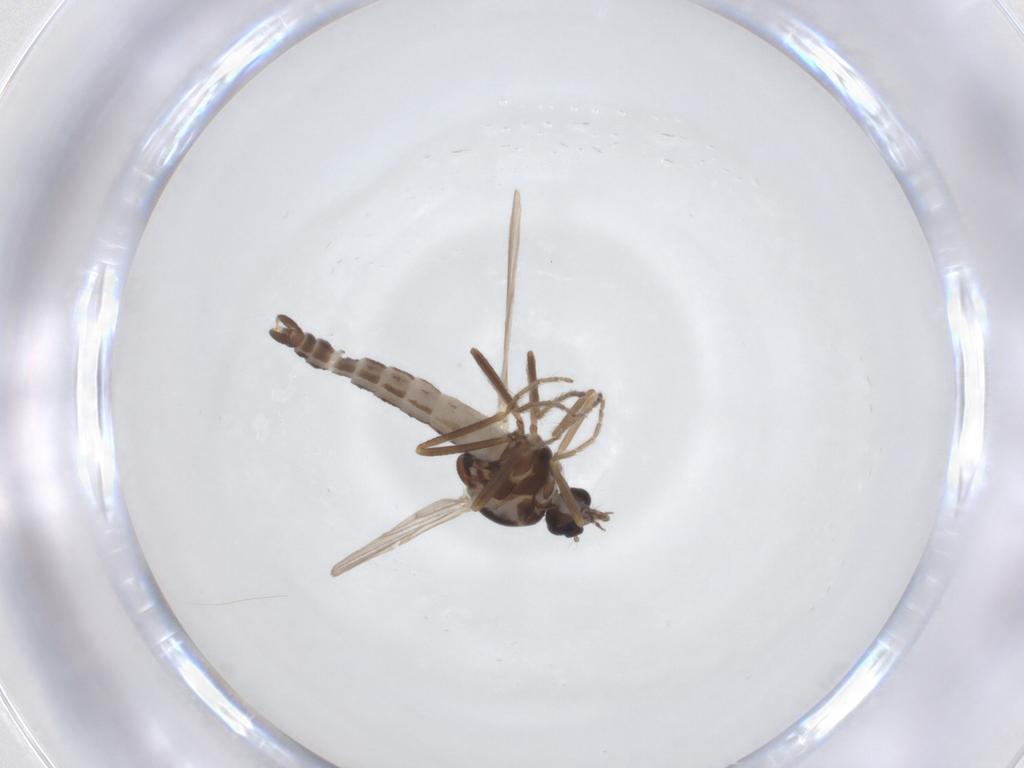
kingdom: Animalia
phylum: Arthropoda
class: Insecta
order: Diptera
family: Ceratopogonidae
